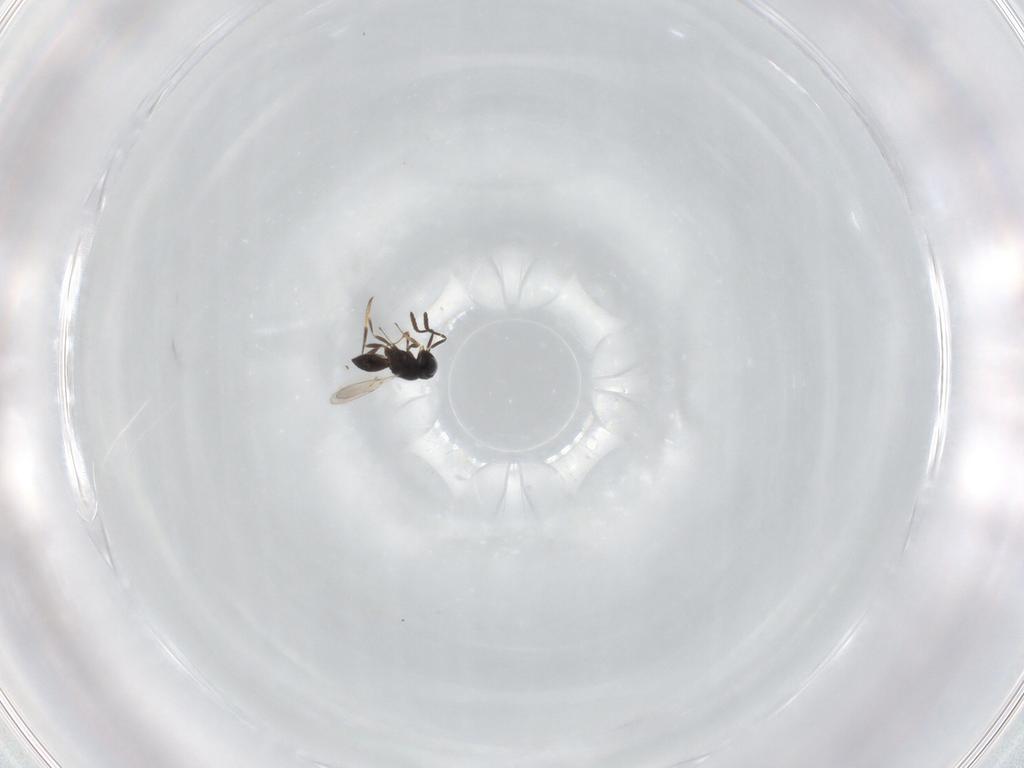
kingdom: Animalia
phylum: Arthropoda
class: Insecta
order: Hymenoptera
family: Scelionidae
